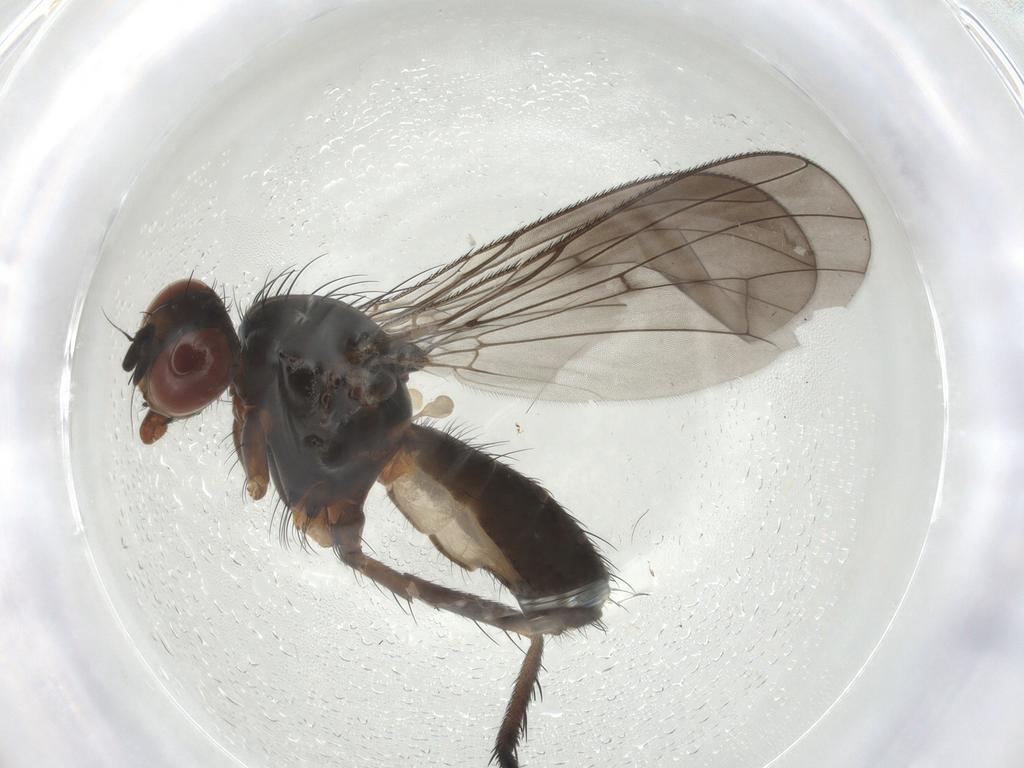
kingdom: Animalia
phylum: Arthropoda
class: Insecta
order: Diptera
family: Anthomyiidae
